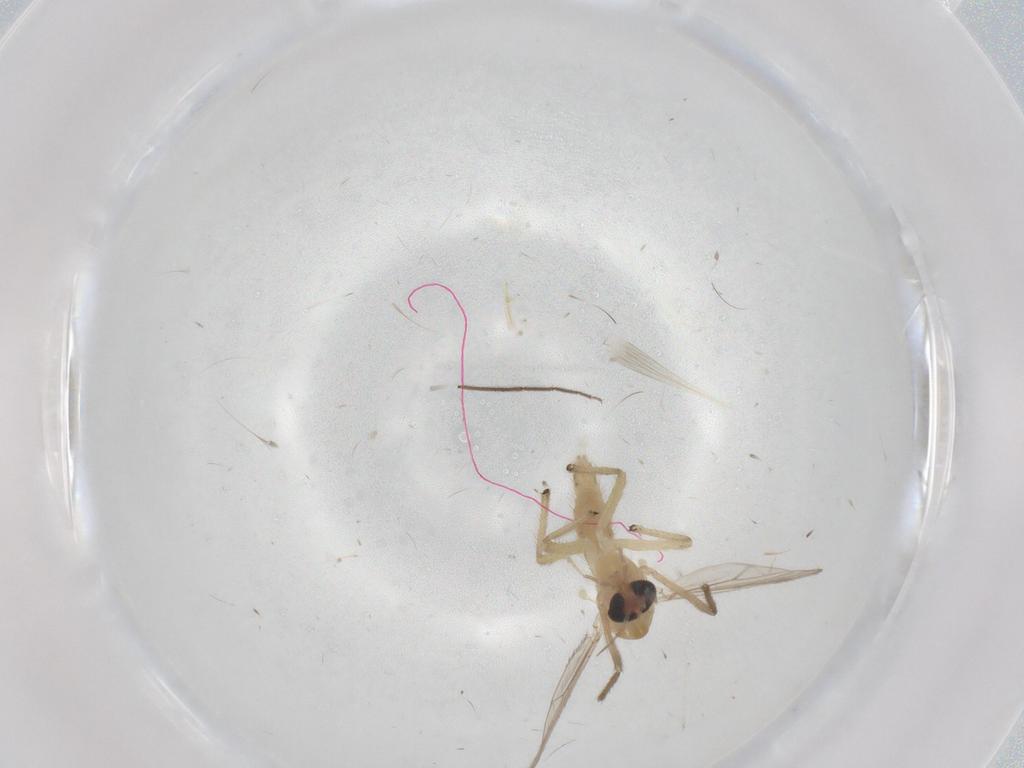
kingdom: Animalia
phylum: Arthropoda
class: Insecta
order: Diptera
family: Chironomidae
